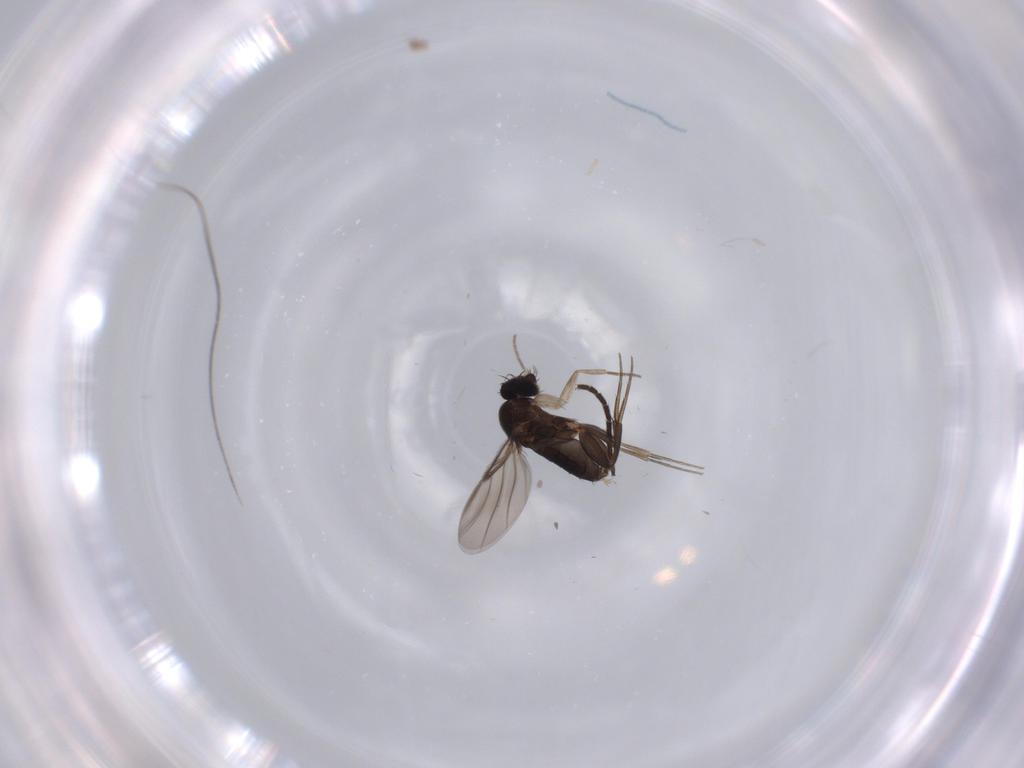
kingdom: Animalia
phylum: Arthropoda
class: Insecta
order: Diptera
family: Phoridae
